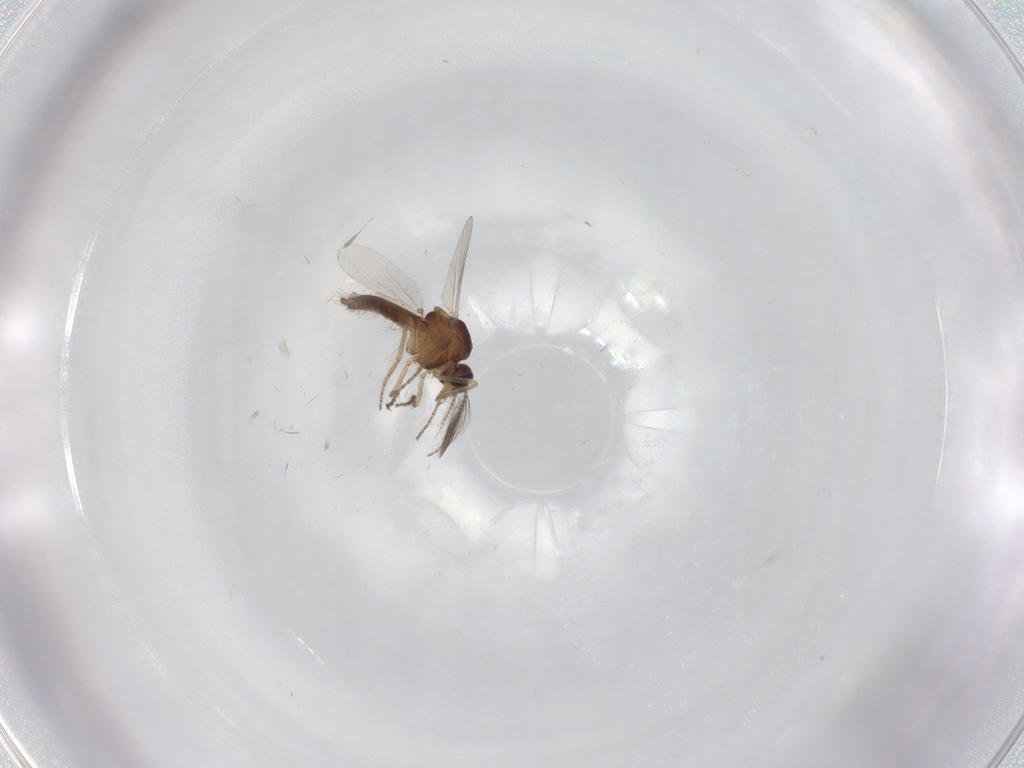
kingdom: Animalia
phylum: Arthropoda
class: Insecta
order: Diptera
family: Ceratopogonidae
